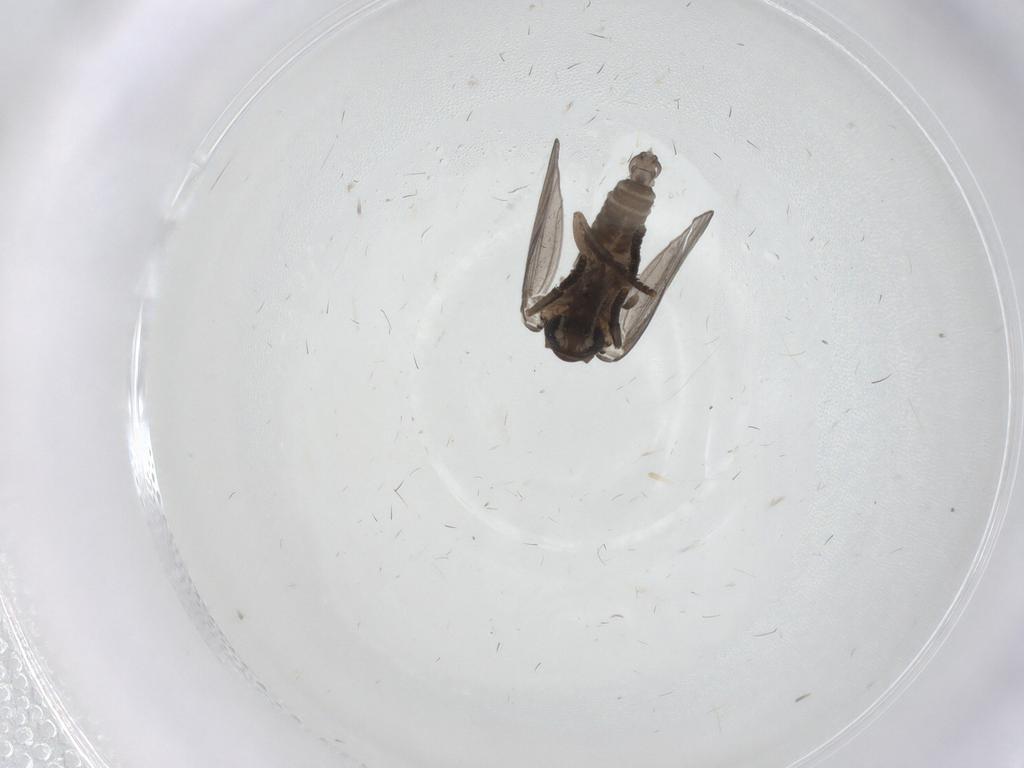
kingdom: Animalia
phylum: Arthropoda
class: Insecta
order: Diptera
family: Psychodidae
